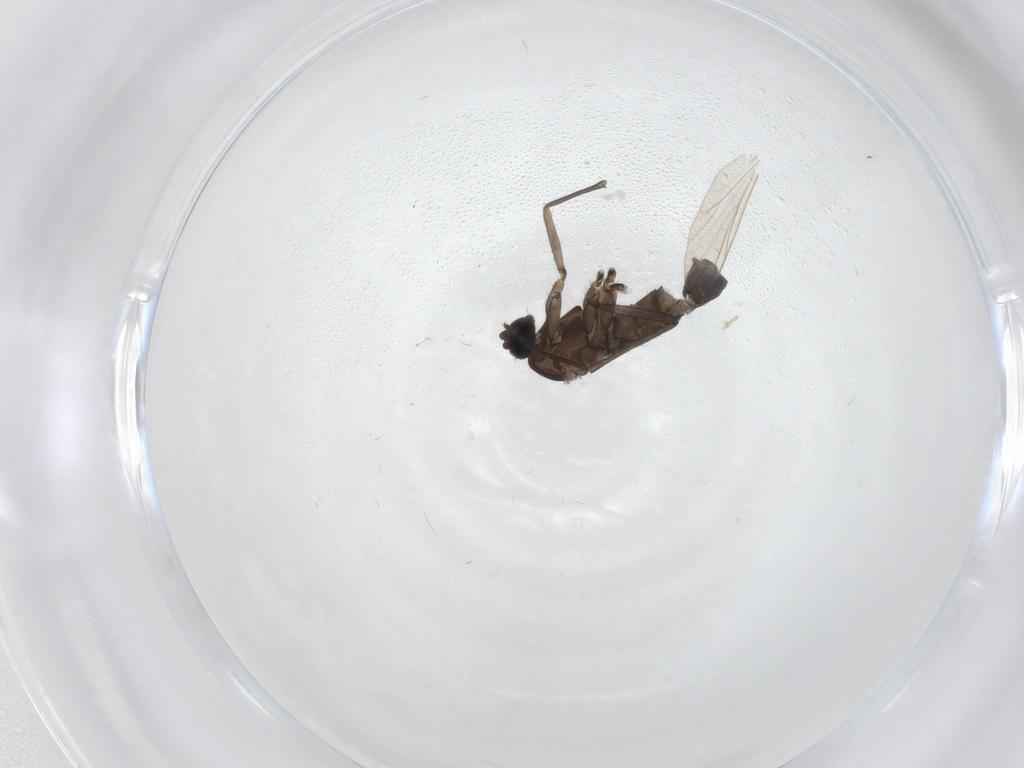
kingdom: Animalia
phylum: Arthropoda
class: Insecta
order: Diptera
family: Sciaridae
